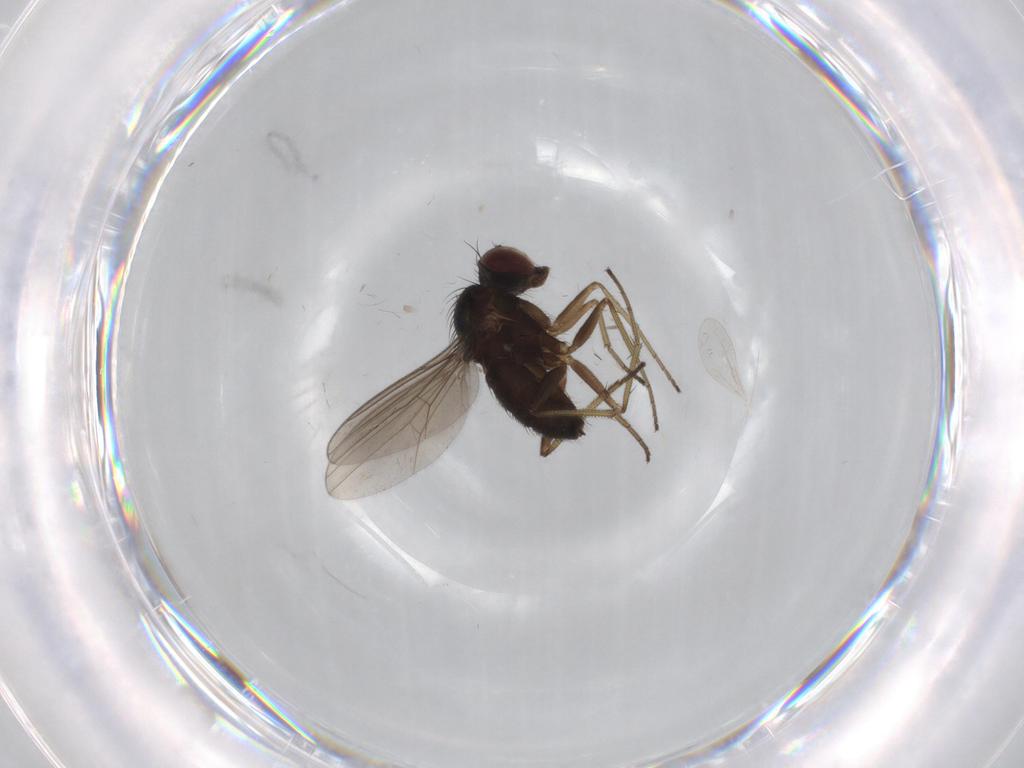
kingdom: Animalia
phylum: Arthropoda
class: Insecta
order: Diptera
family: Dolichopodidae
